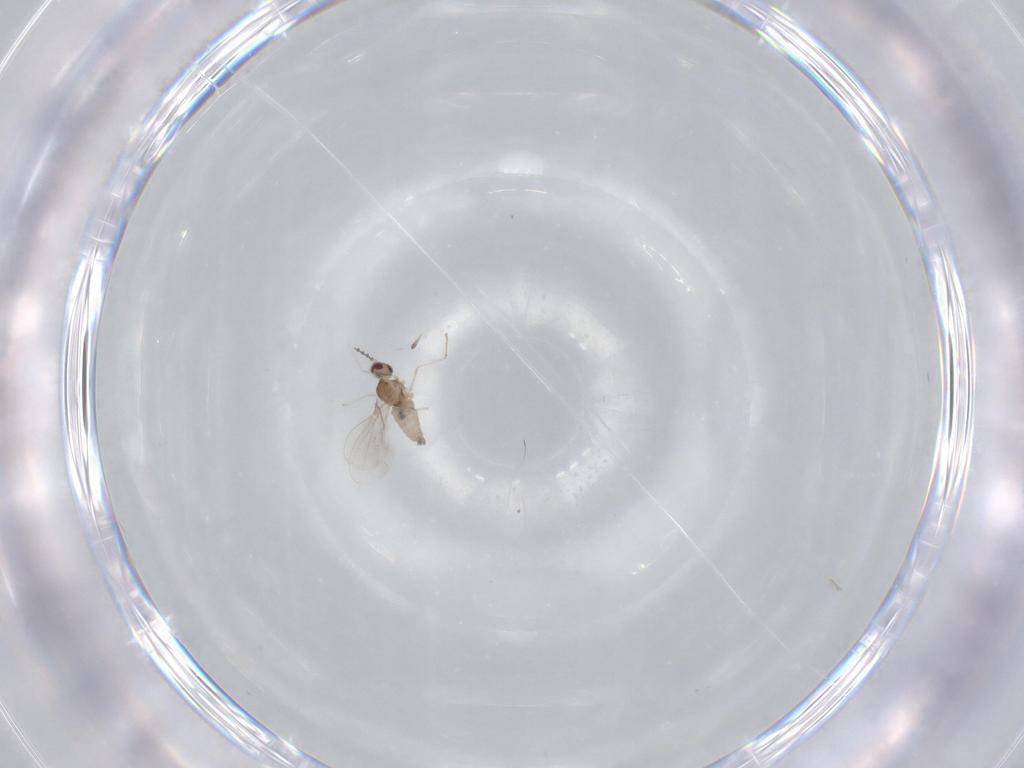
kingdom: Animalia
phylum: Arthropoda
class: Insecta
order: Diptera
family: Cecidomyiidae
